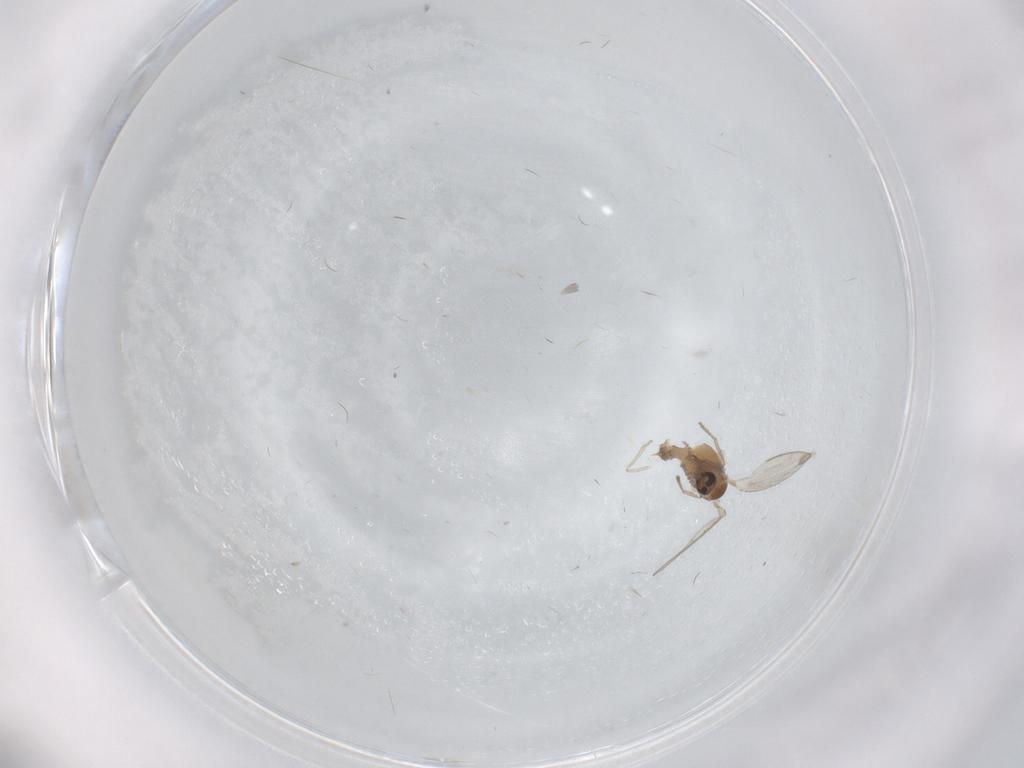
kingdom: Animalia
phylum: Arthropoda
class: Insecta
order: Diptera
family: Psychodidae
